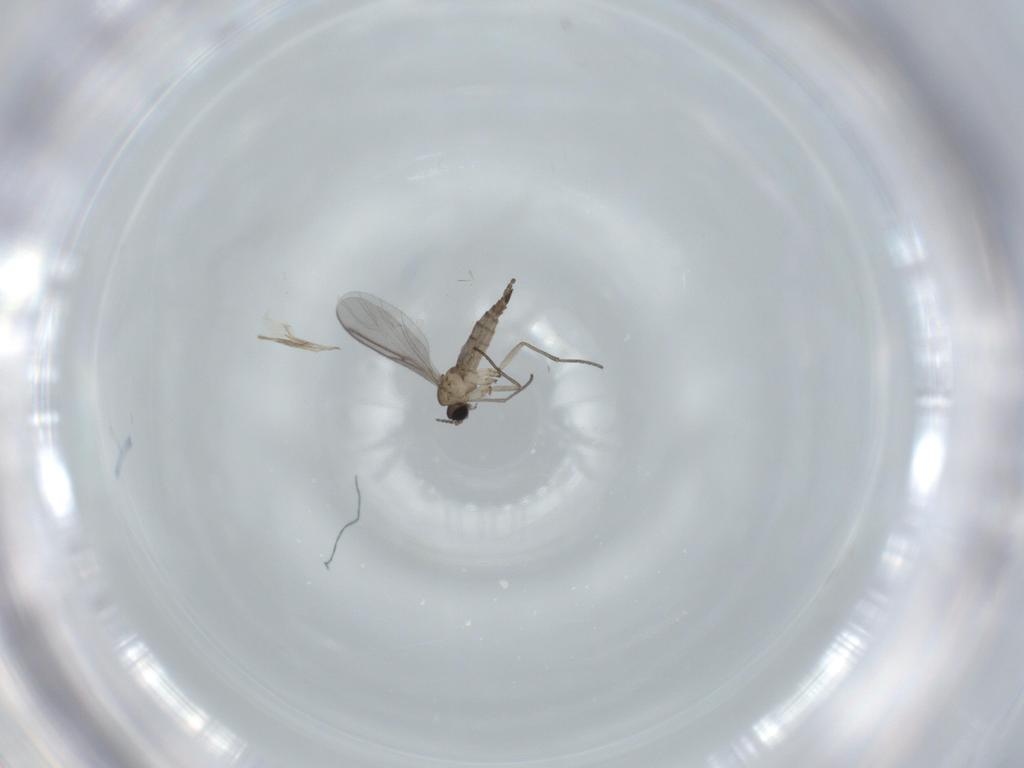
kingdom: Animalia
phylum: Arthropoda
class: Insecta
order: Diptera
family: Sciaridae
